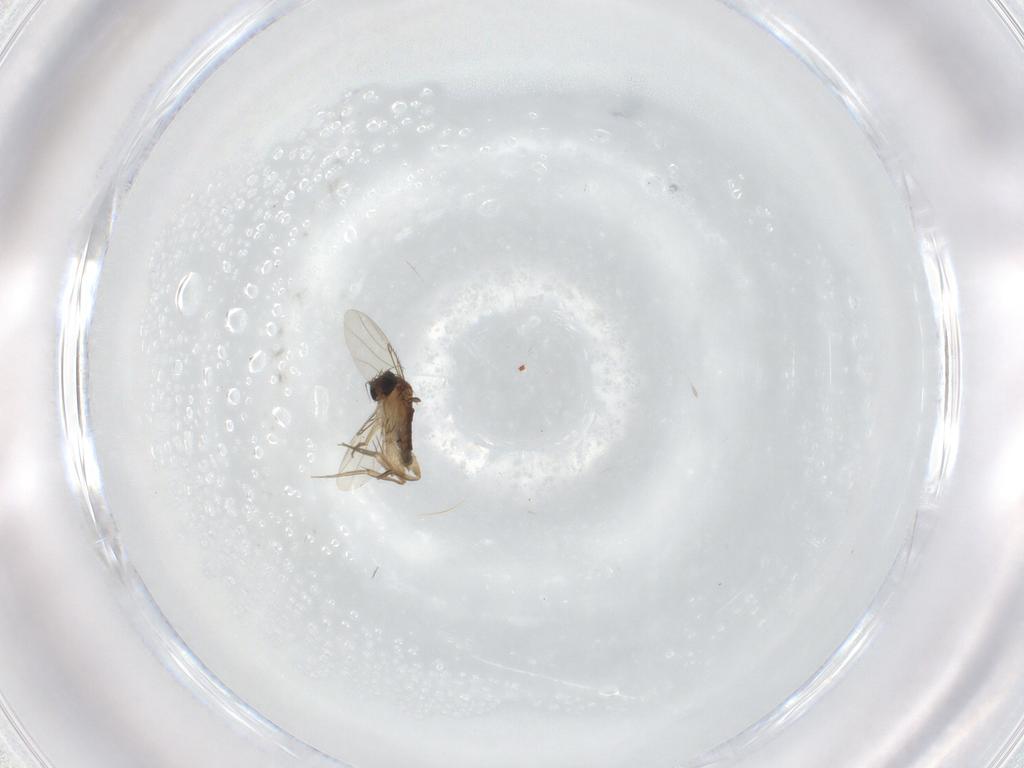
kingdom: Animalia
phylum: Arthropoda
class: Insecta
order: Diptera
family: Phoridae
